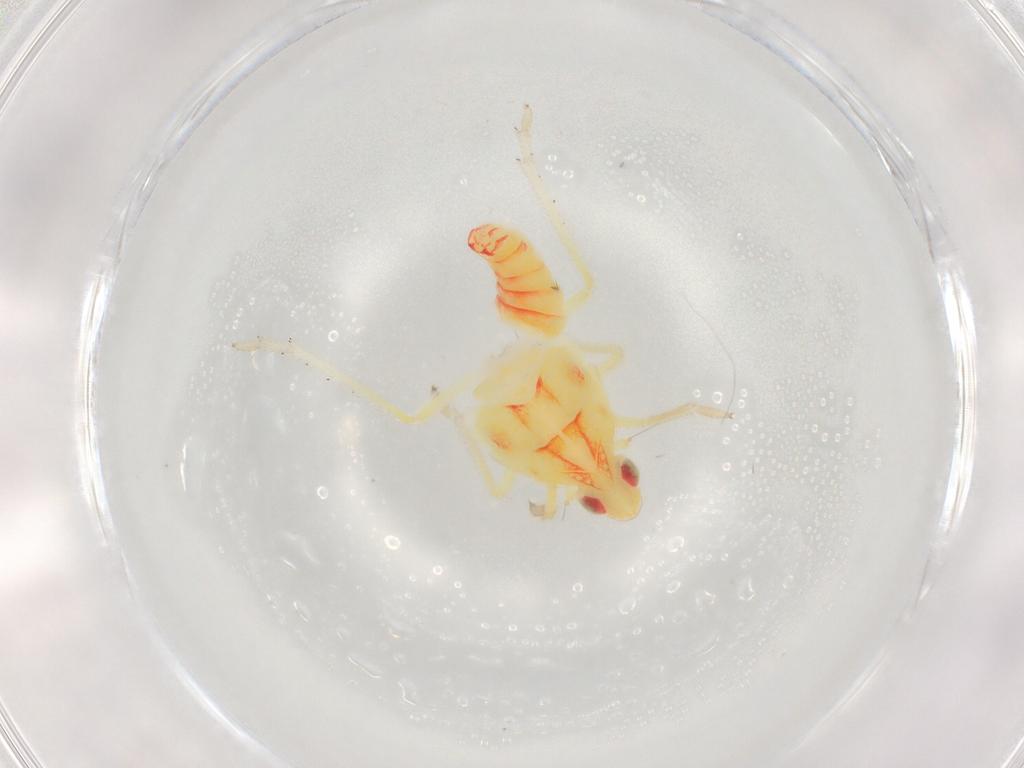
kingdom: Animalia
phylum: Arthropoda
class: Insecta
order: Hemiptera
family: Tropiduchidae
